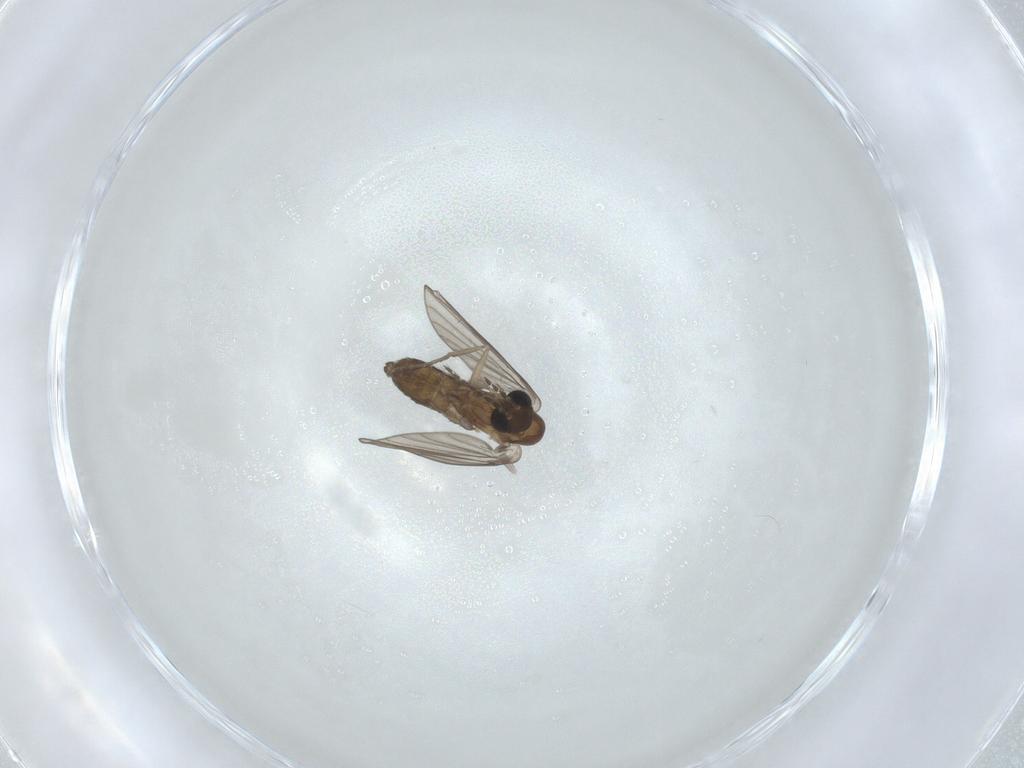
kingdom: Animalia
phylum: Arthropoda
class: Insecta
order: Diptera
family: Psychodidae
